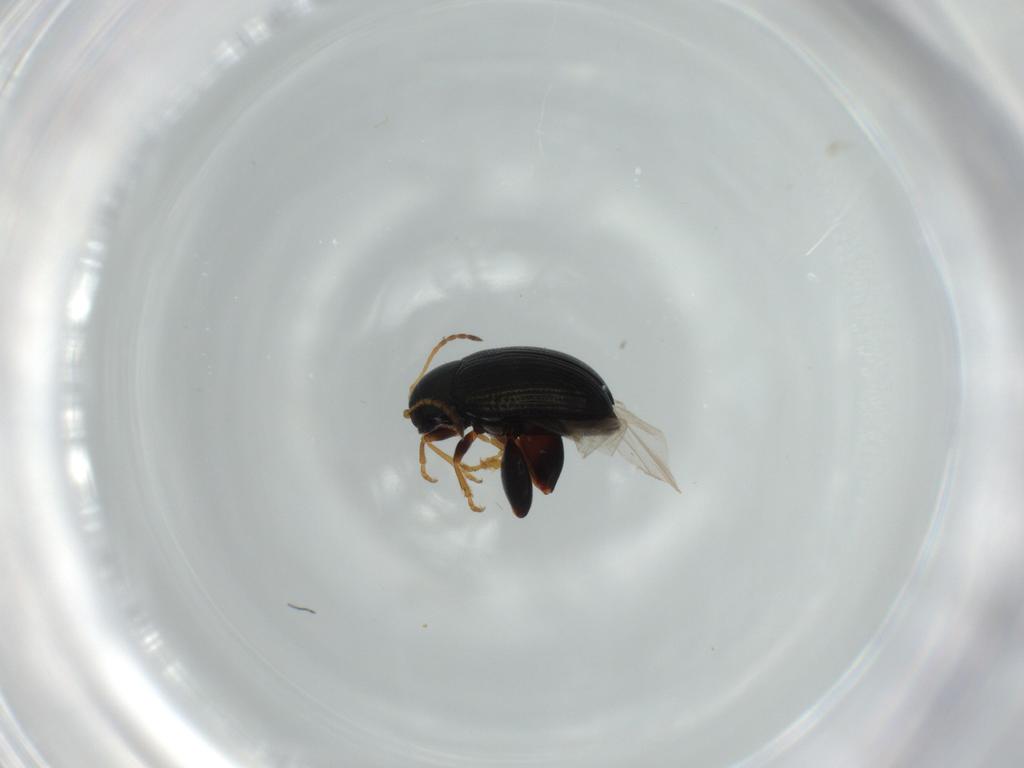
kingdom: Animalia
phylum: Arthropoda
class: Insecta
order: Coleoptera
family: Chrysomelidae
